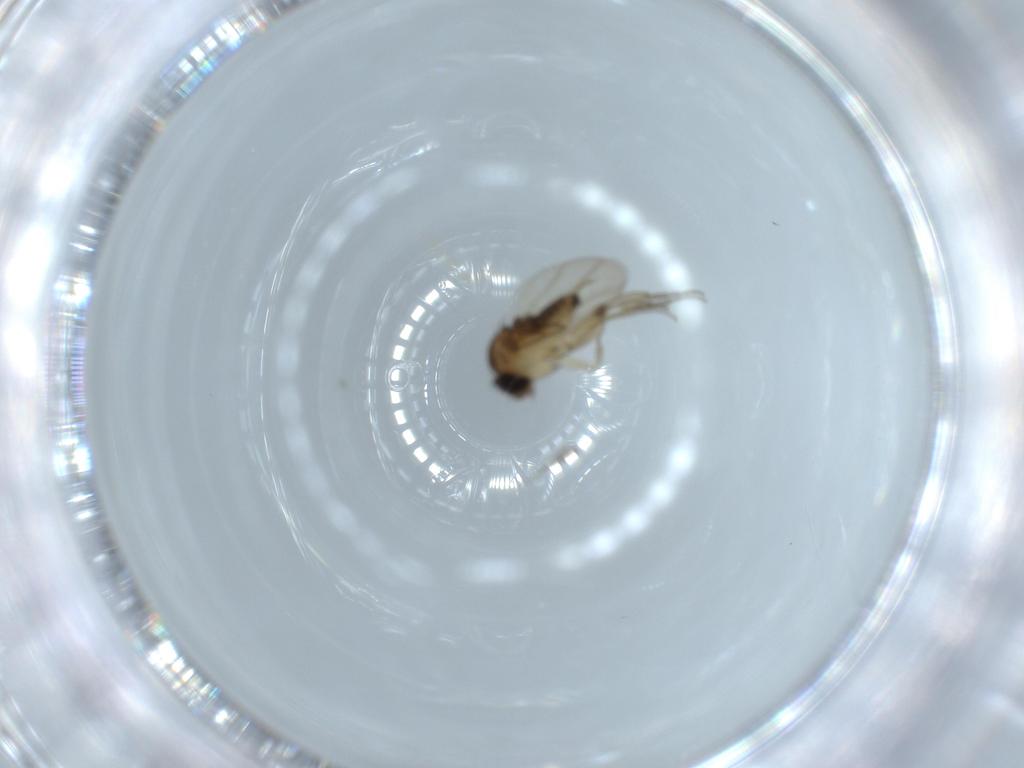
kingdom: Animalia
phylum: Arthropoda
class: Insecta
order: Diptera
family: Phoridae
